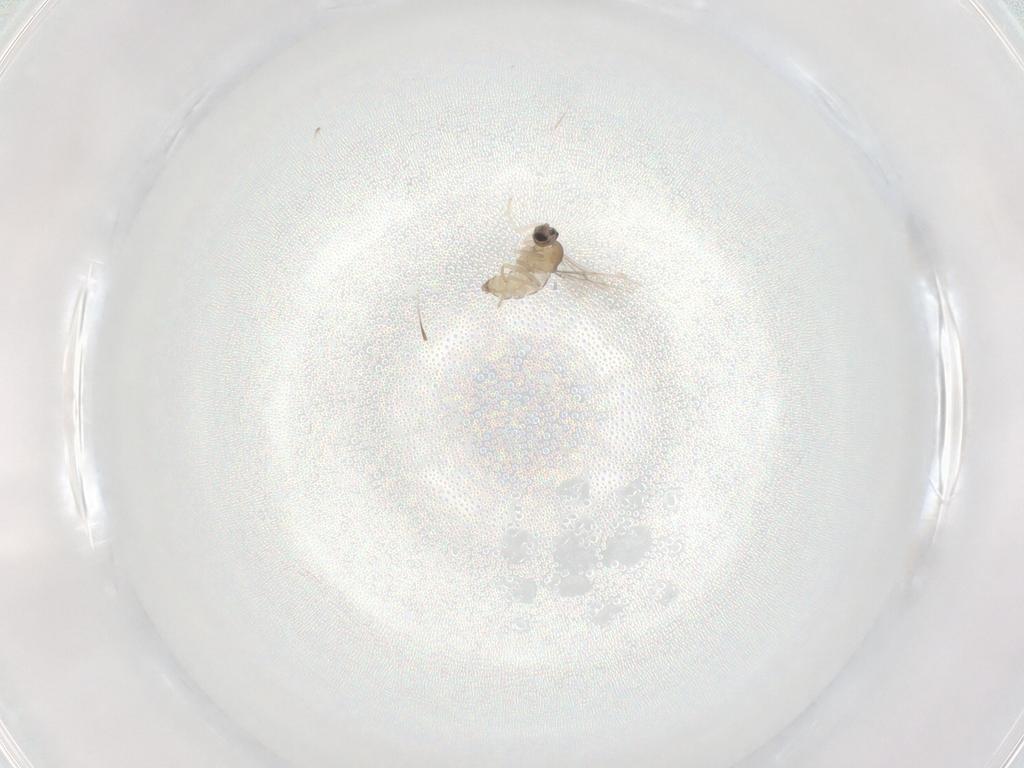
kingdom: Animalia
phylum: Arthropoda
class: Insecta
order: Diptera
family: Cecidomyiidae
